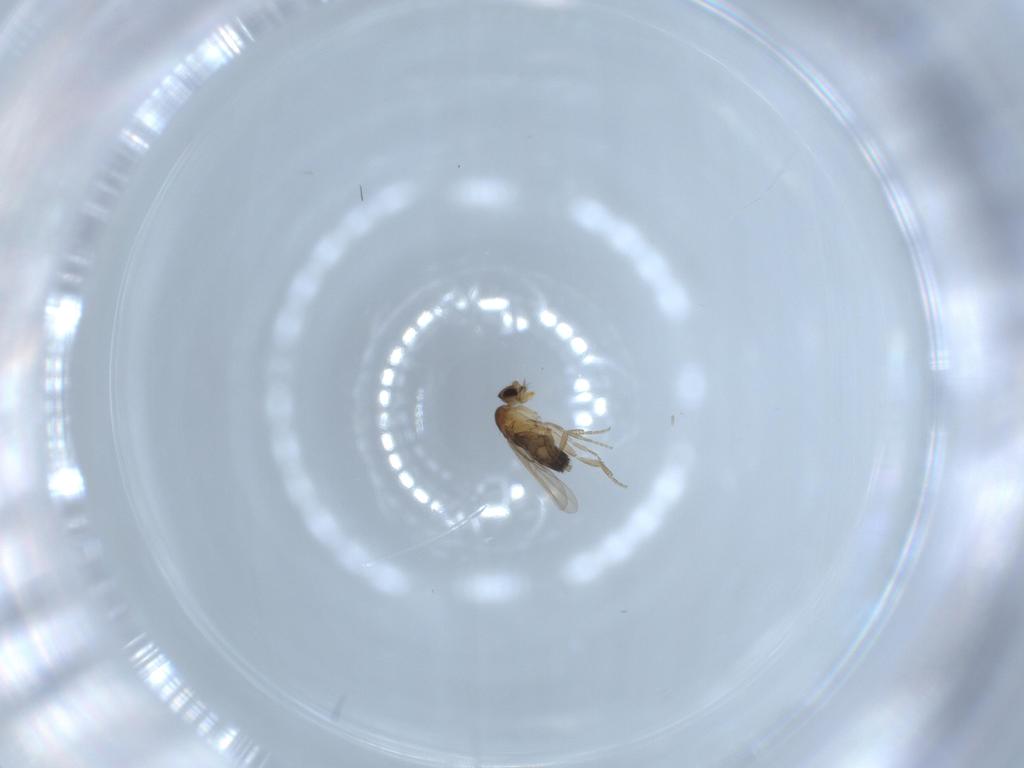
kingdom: Animalia
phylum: Arthropoda
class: Insecta
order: Diptera
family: Phoridae
